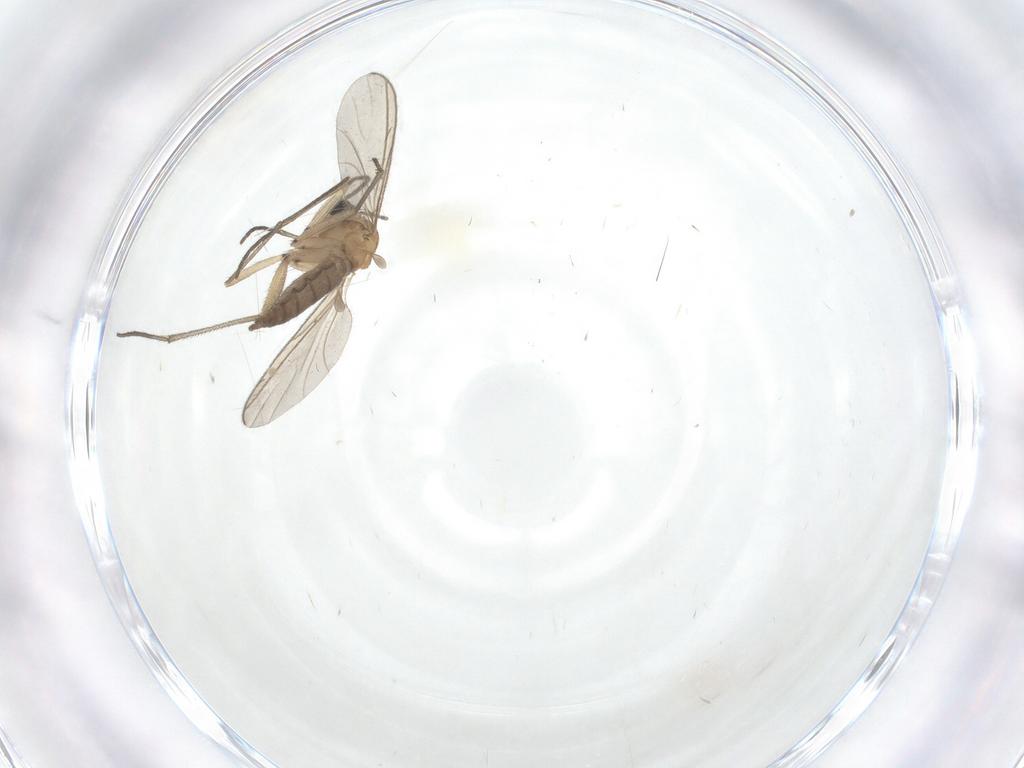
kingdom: Animalia
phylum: Arthropoda
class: Insecta
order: Diptera
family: Sciaridae
